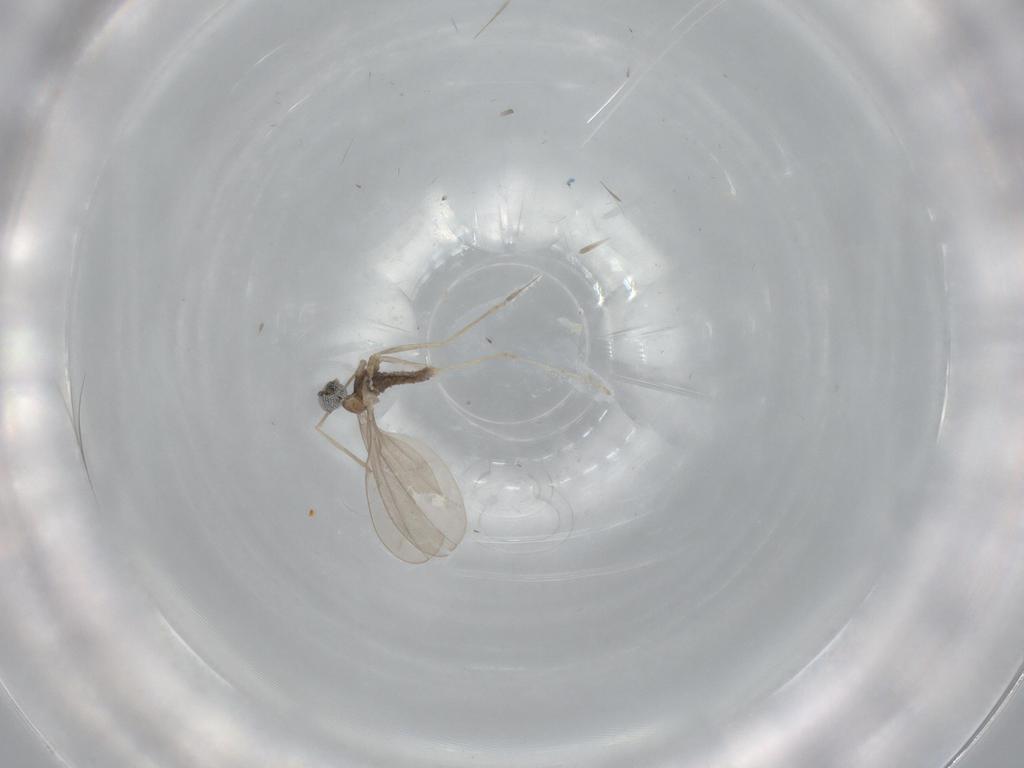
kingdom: Animalia
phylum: Arthropoda
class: Insecta
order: Diptera
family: Cecidomyiidae
